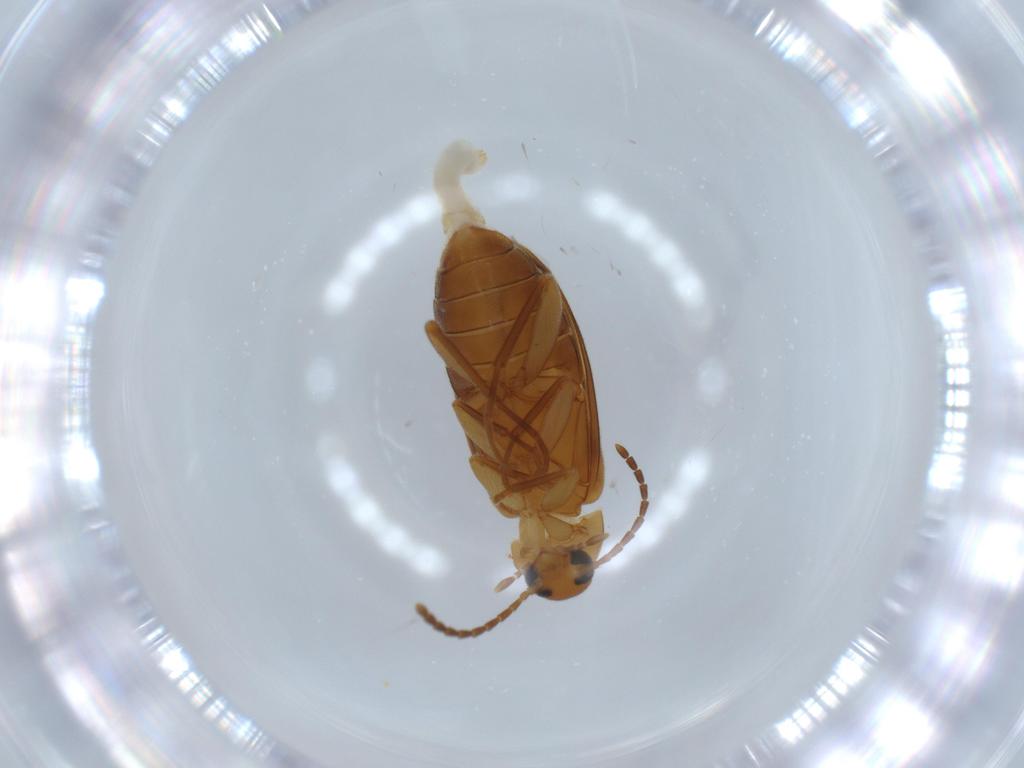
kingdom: Animalia
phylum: Arthropoda
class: Insecta
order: Coleoptera
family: Scraptiidae
